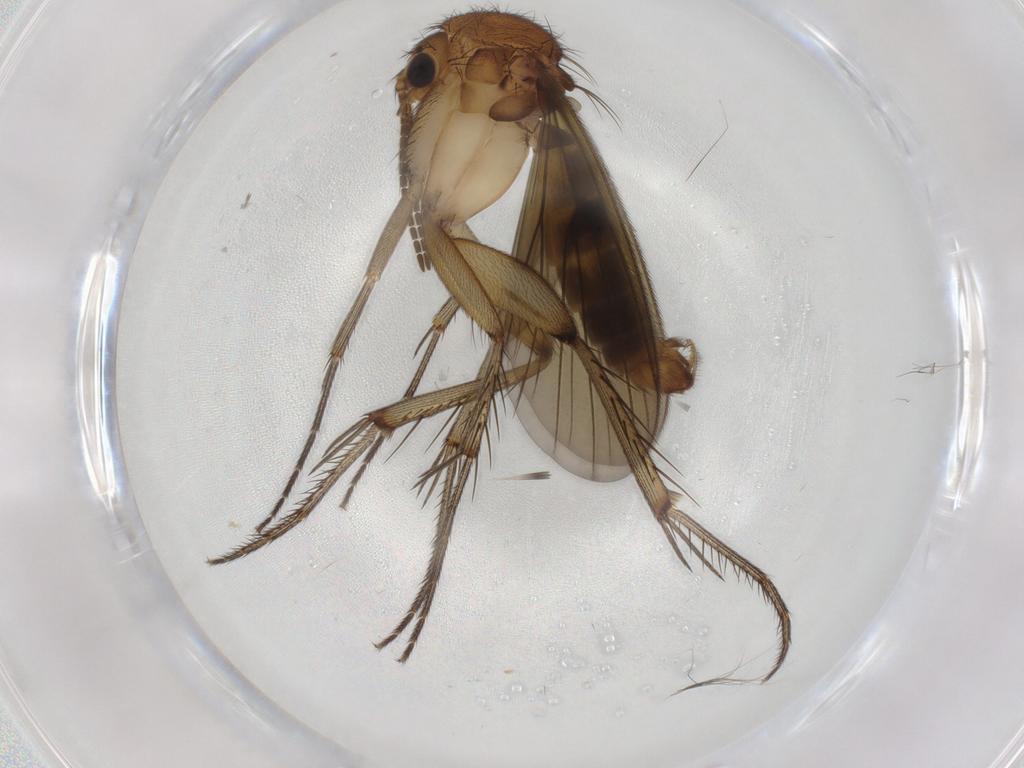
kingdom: Animalia
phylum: Arthropoda
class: Insecta
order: Diptera
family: Mycetophilidae
